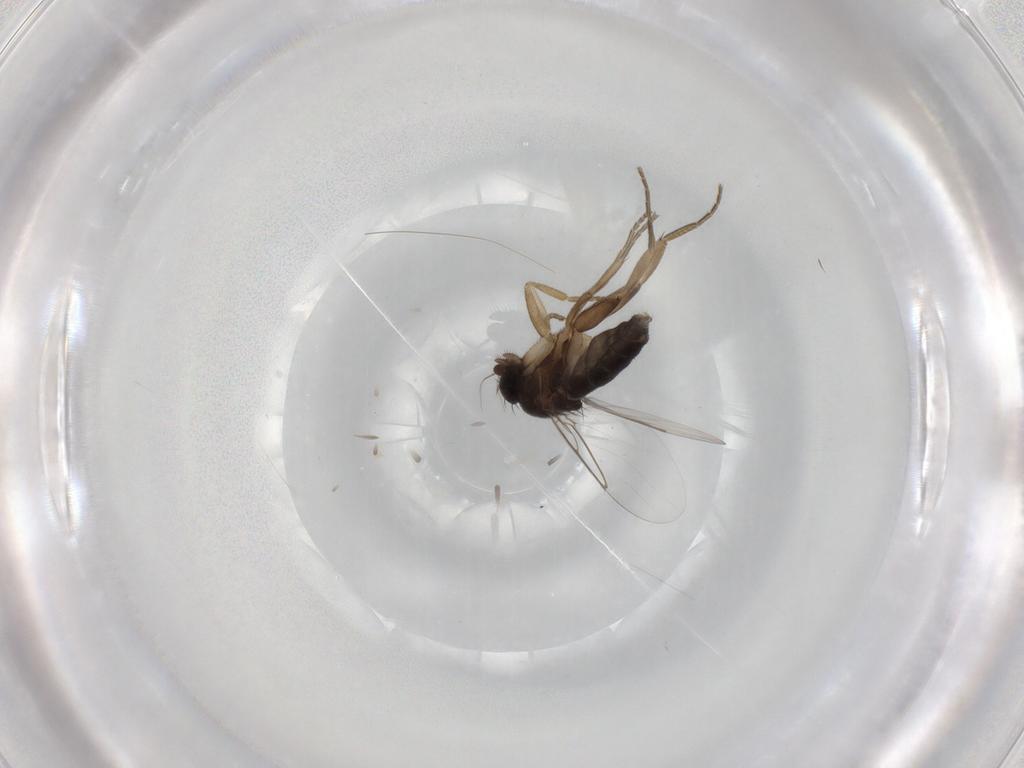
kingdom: Animalia
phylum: Arthropoda
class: Insecta
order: Diptera
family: Phoridae
